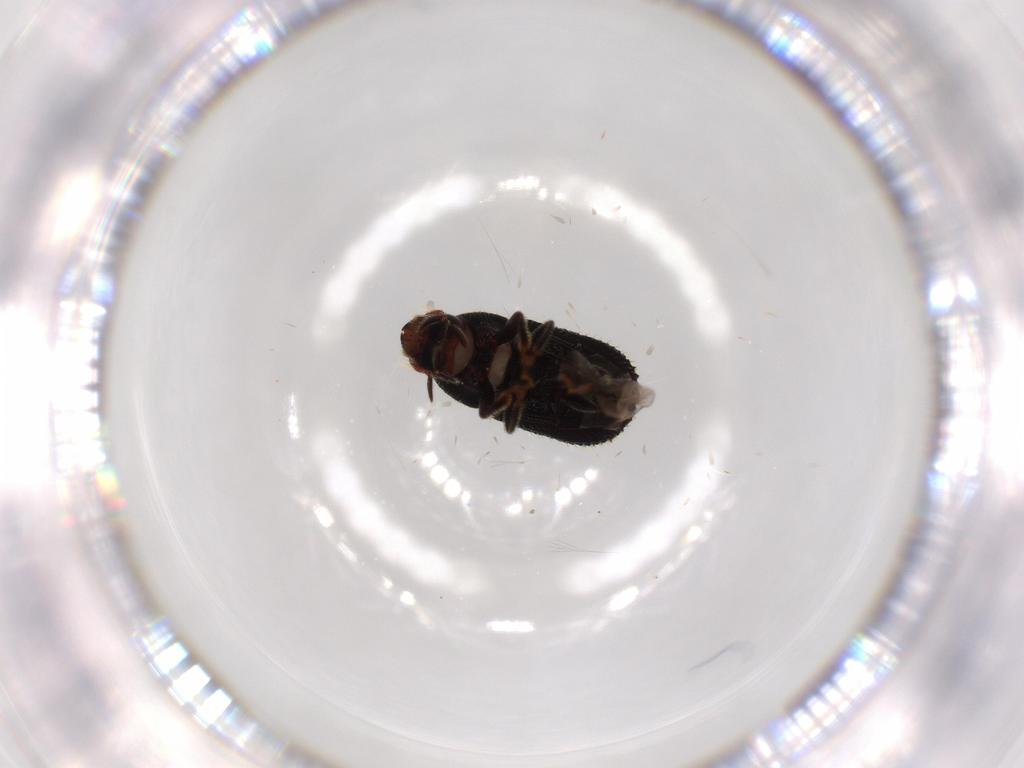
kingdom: Animalia
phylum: Arthropoda
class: Insecta
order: Coleoptera
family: Curculionidae
